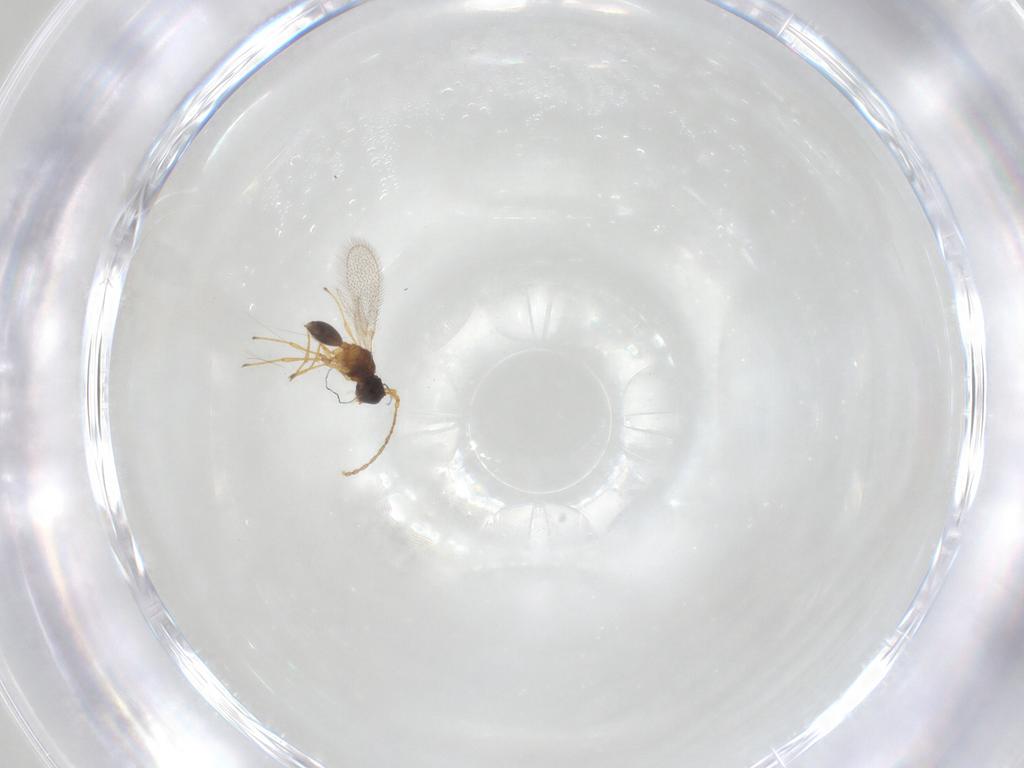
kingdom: Animalia
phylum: Arthropoda
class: Insecta
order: Hymenoptera
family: Diapriidae
